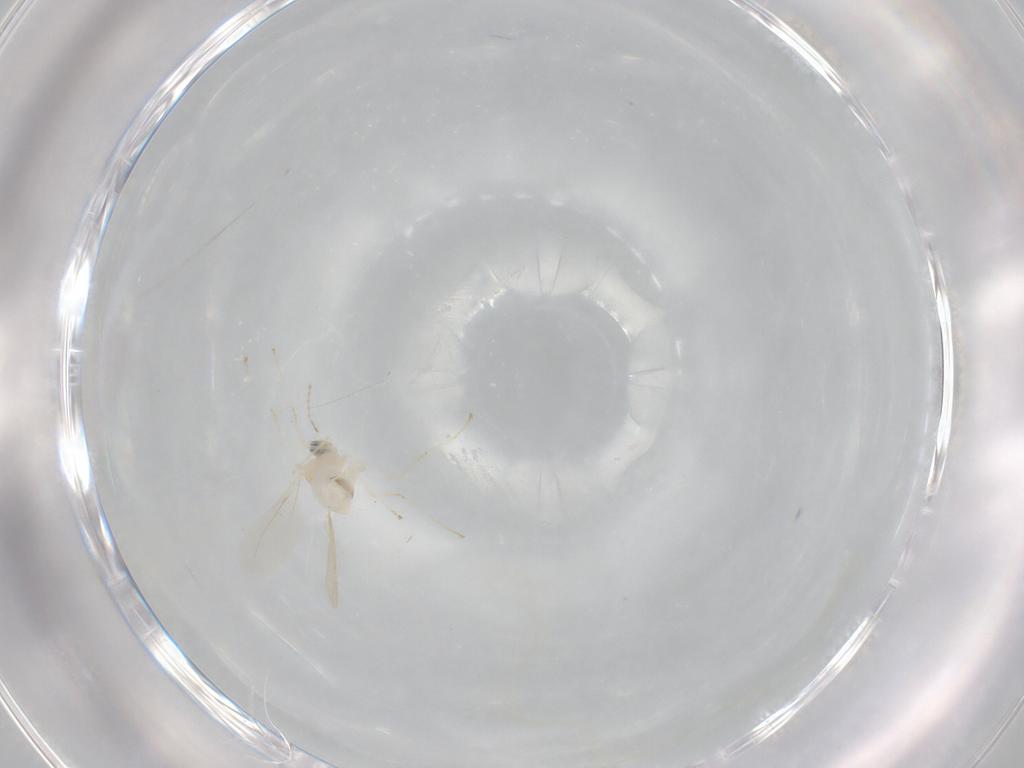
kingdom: Animalia
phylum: Arthropoda
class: Insecta
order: Diptera
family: Cecidomyiidae
